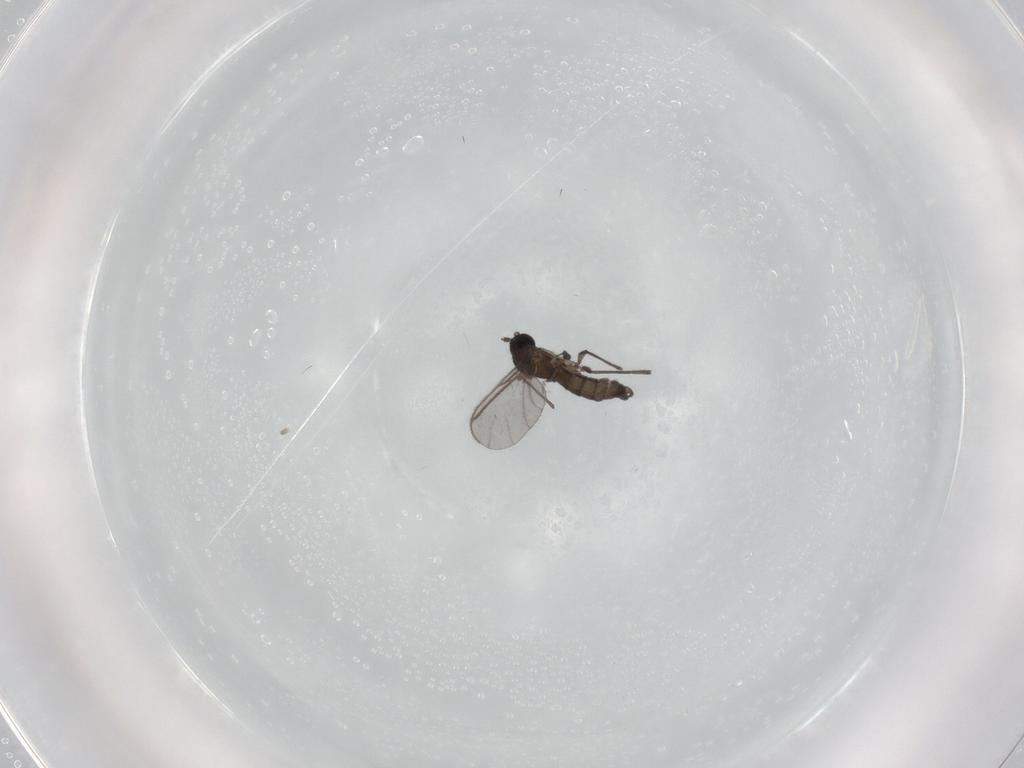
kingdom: Animalia
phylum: Arthropoda
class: Insecta
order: Diptera
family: Sciaridae
